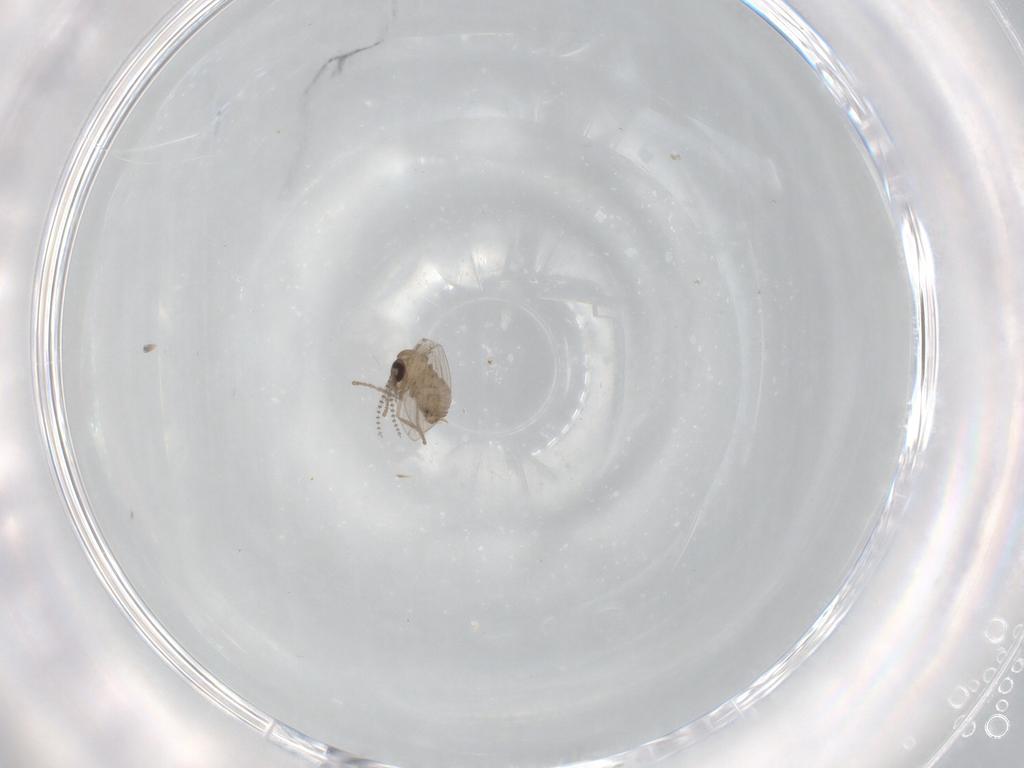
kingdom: Animalia
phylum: Arthropoda
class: Insecta
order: Diptera
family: Psychodidae
